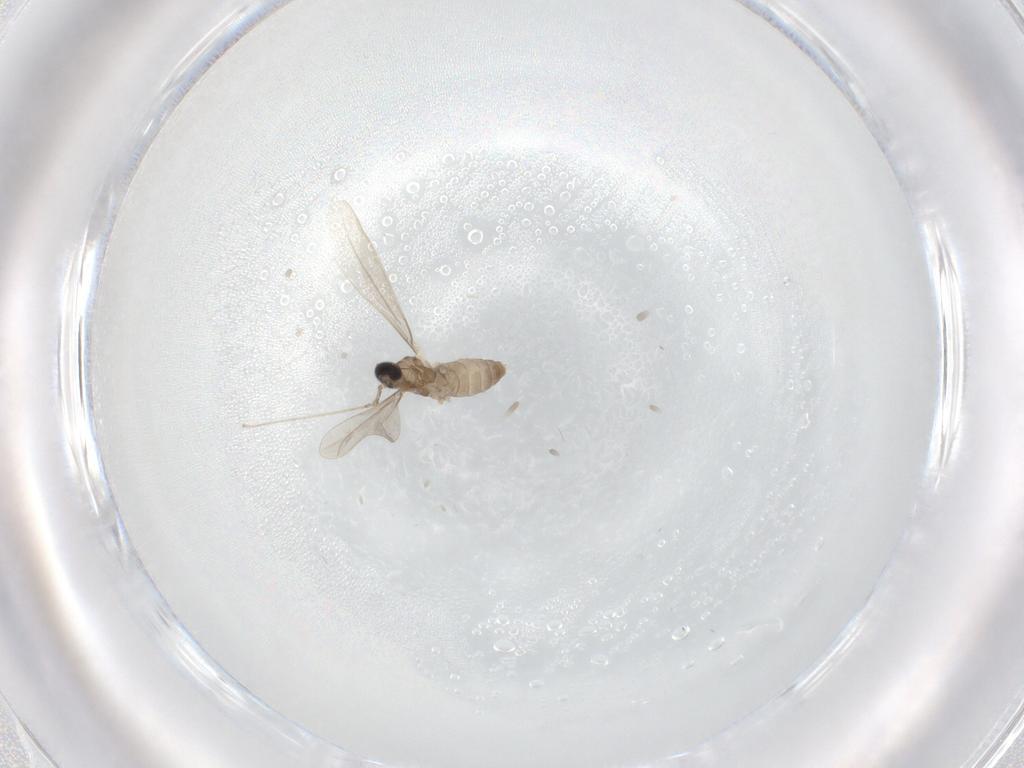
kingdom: Animalia
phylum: Arthropoda
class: Insecta
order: Diptera
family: Cecidomyiidae
